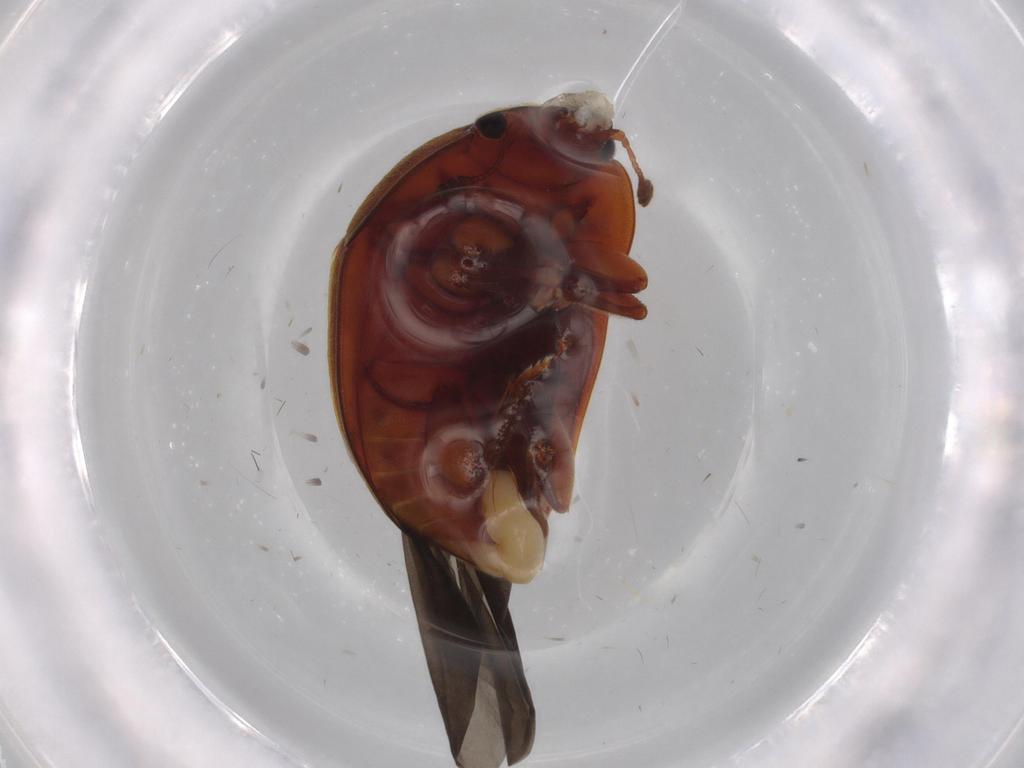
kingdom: Animalia
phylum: Arthropoda
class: Insecta
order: Coleoptera
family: Nitidulidae
